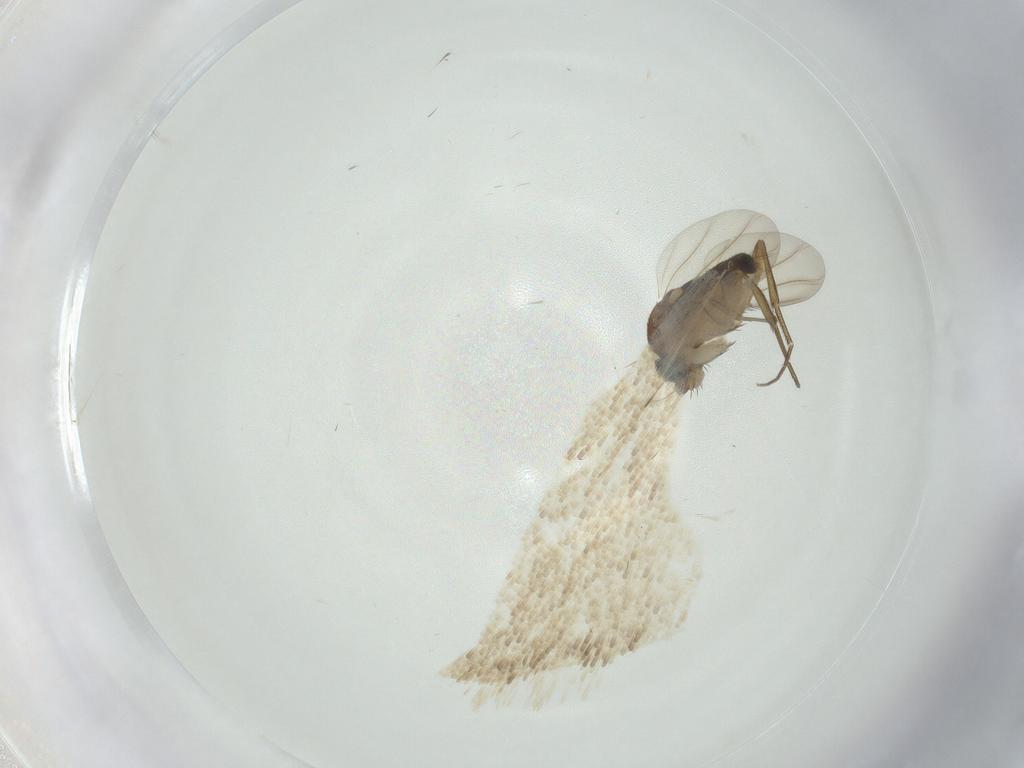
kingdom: Animalia
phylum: Arthropoda
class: Insecta
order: Diptera
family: Phoridae
